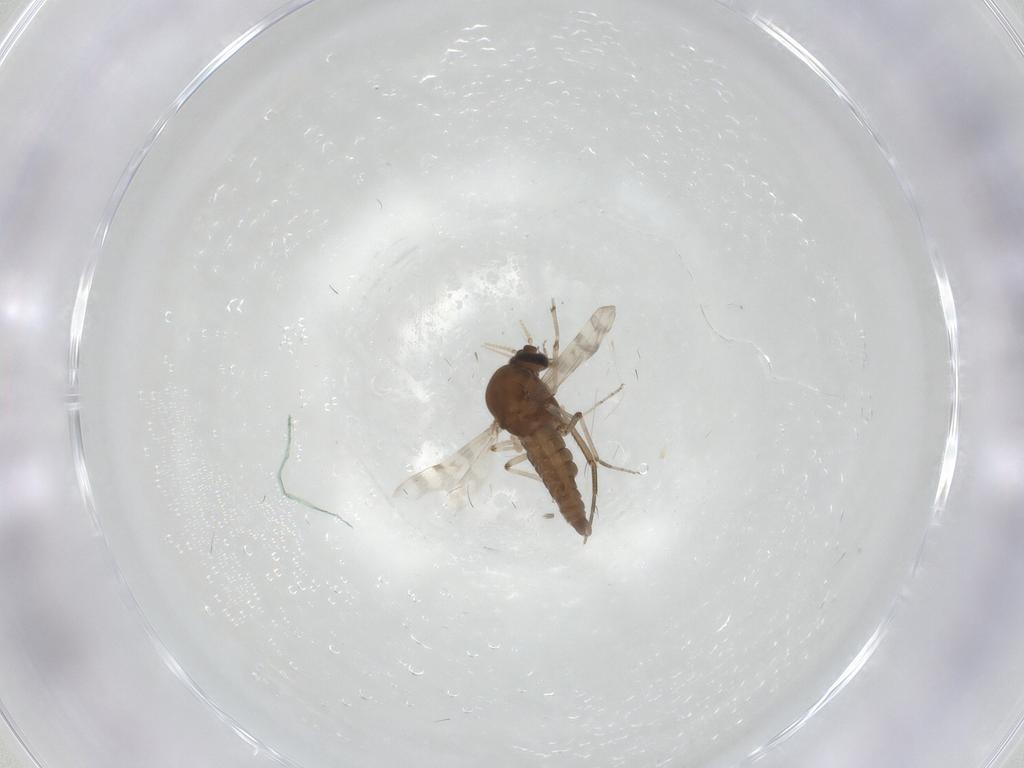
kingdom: Animalia
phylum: Arthropoda
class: Insecta
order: Diptera
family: Phoridae
